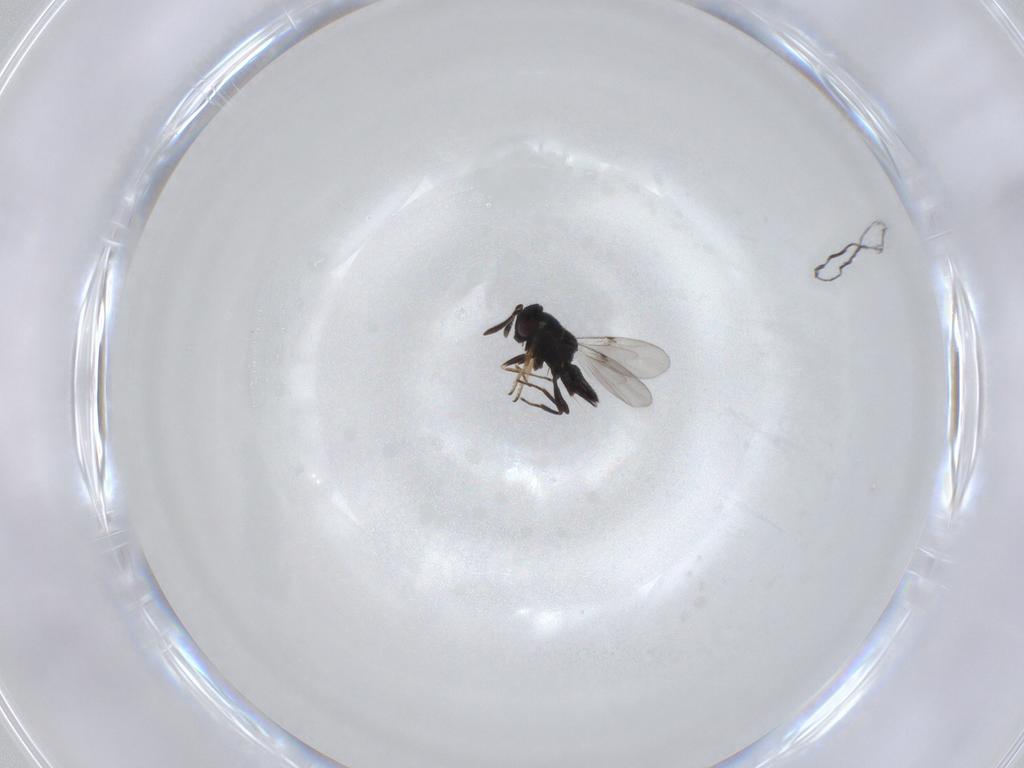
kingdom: Animalia
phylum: Arthropoda
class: Insecta
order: Hymenoptera
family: Encyrtidae
